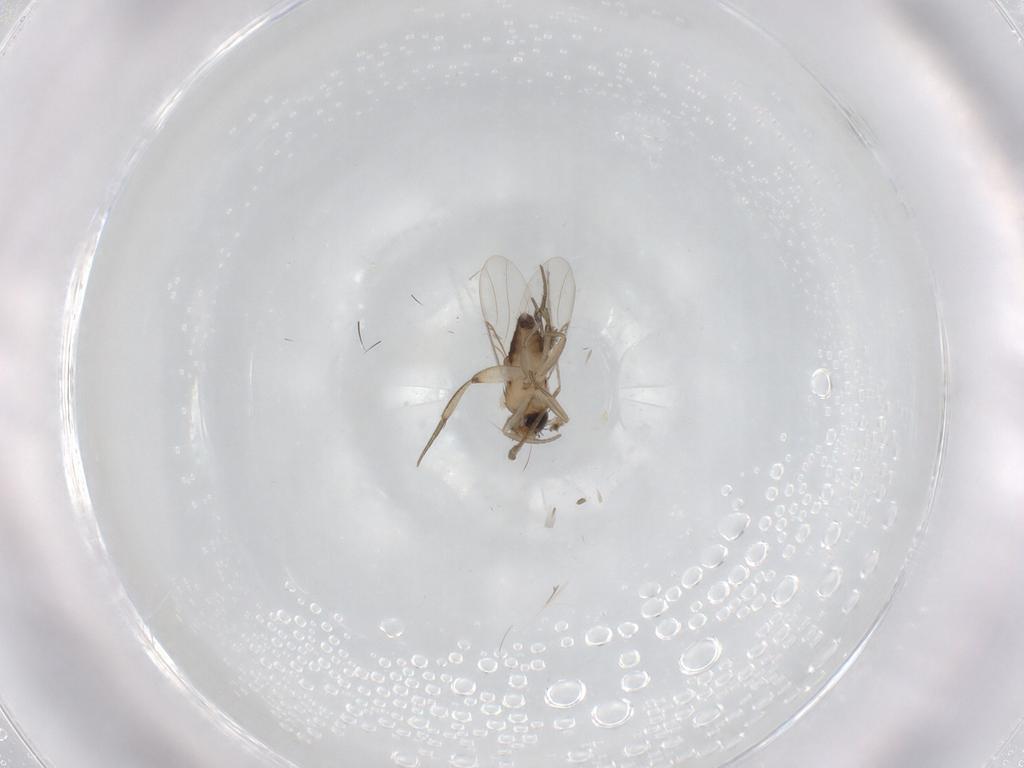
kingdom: Animalia
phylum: Arthropoda
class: Insecta
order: Diptera
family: Phoridae
